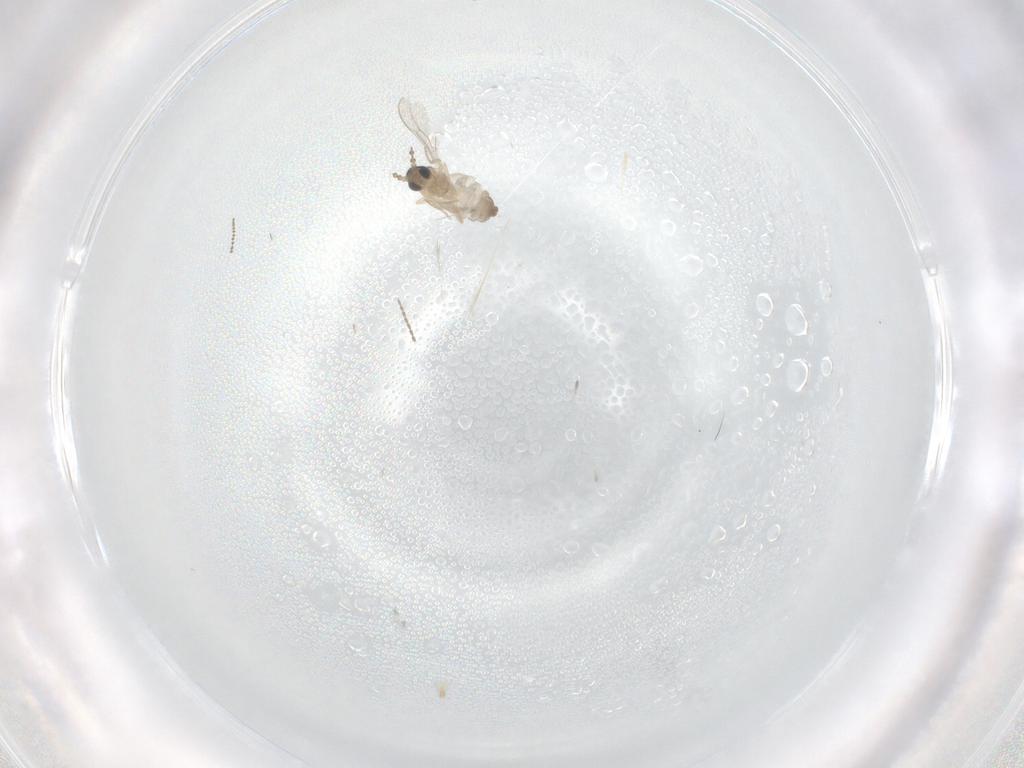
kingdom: Animalia
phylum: Arthropoda
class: Insecta
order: Diptera
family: Cecidomyiidae
